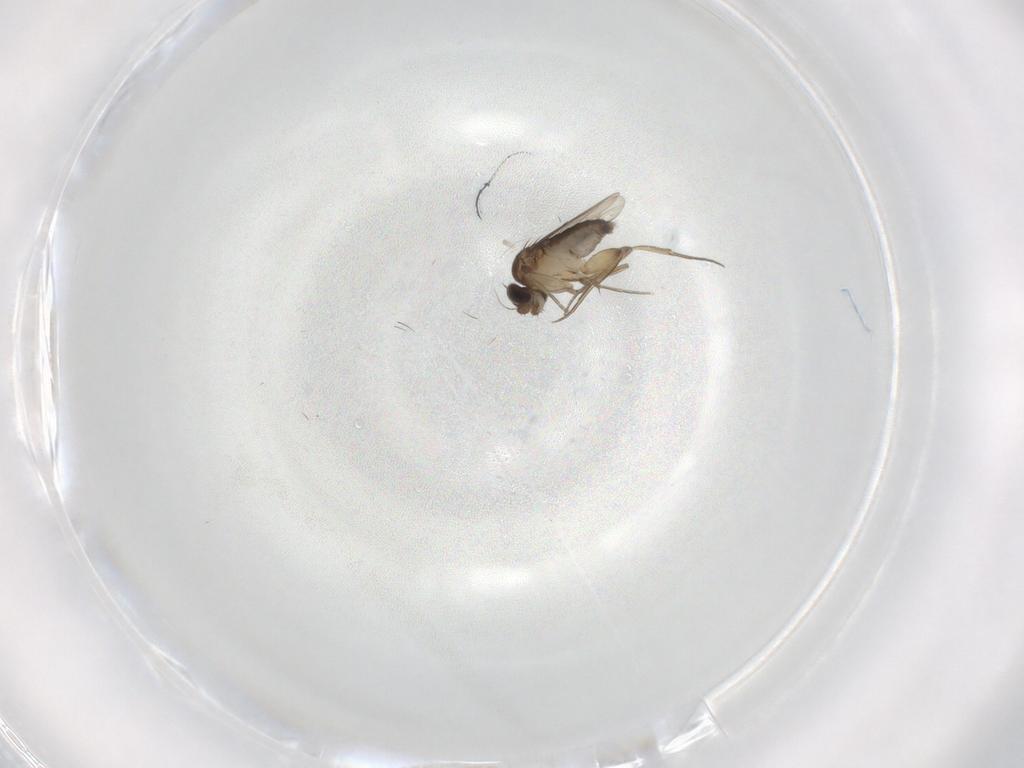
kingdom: Animalia
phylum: Arthropoda
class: Insecta
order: Diptera
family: Phoridae
